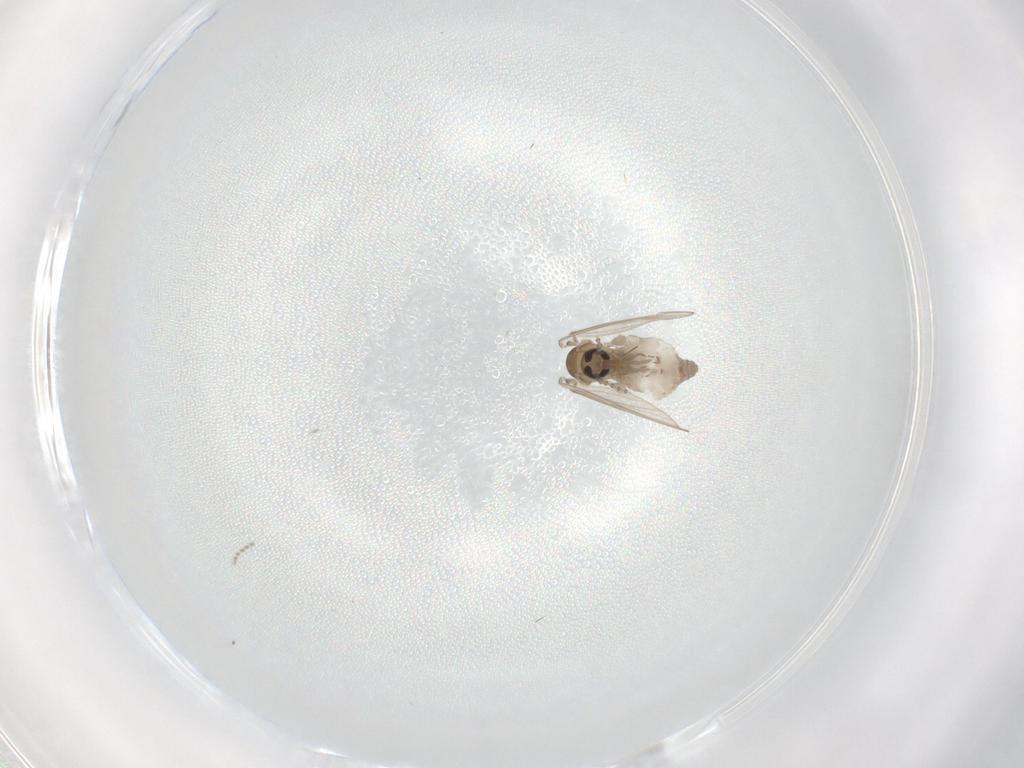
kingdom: Animalia
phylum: Arthropoda
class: Insecta
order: Diptera
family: Psychodidae
